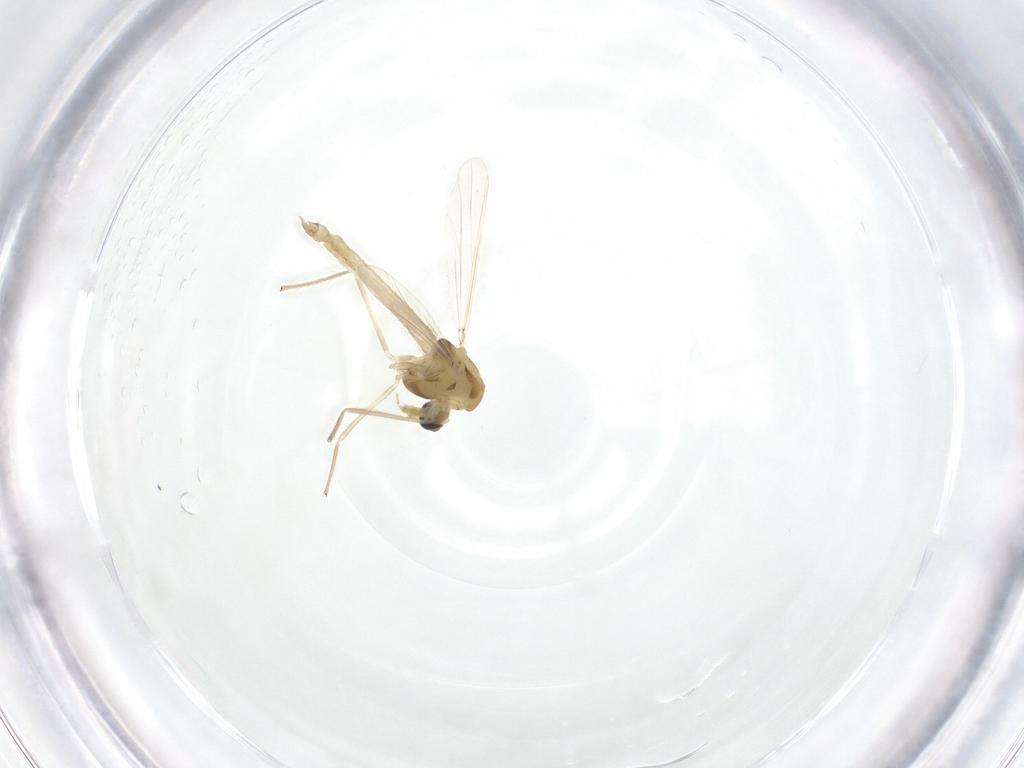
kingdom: Animalia
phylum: Arthropoda
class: Insecta
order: Diptera
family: Chironomidae
